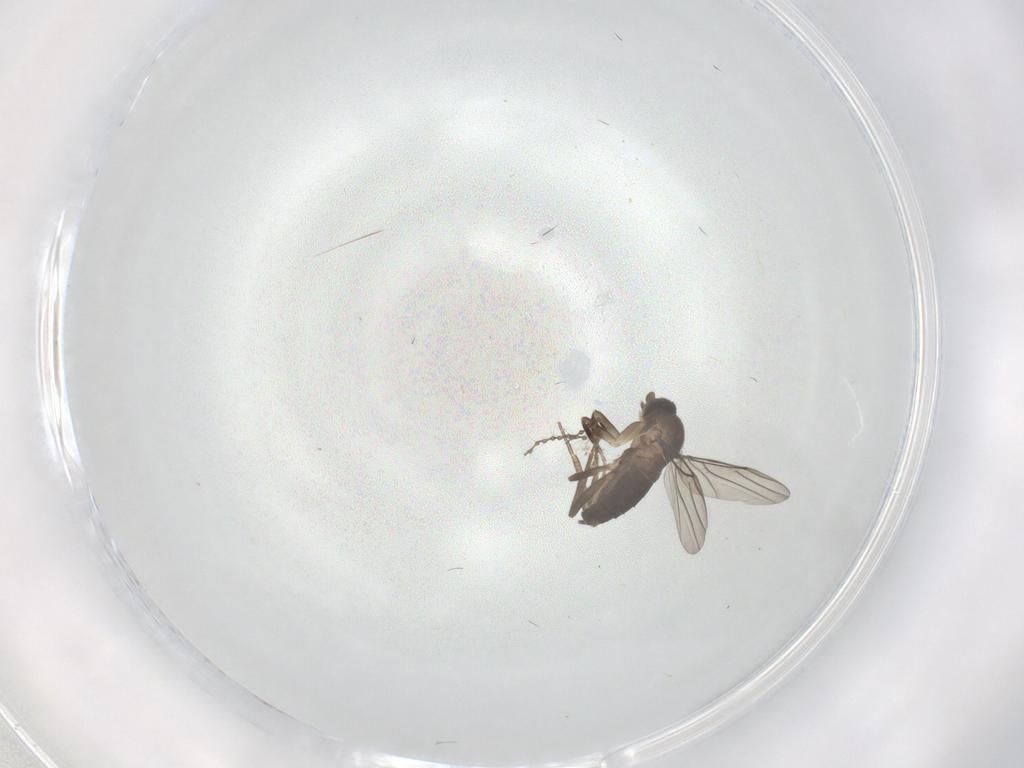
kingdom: Animalia
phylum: Arthropoda
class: Insecta
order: Diptera
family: Phoridae
